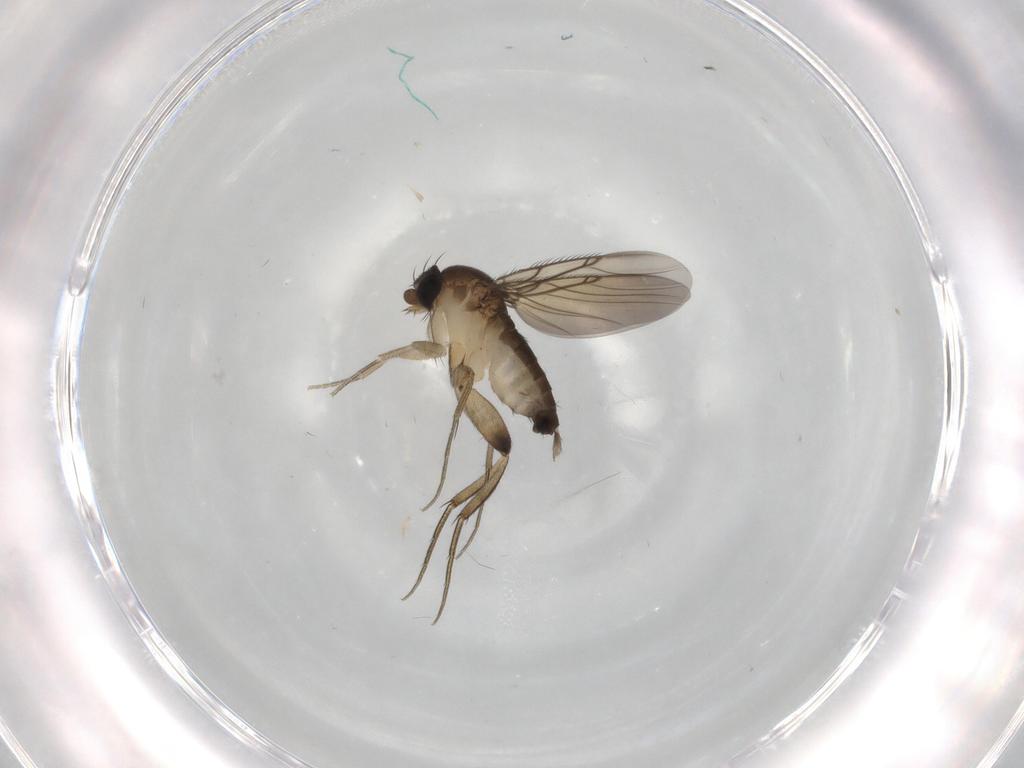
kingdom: Animalia
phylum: Arthropoda
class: Insecta
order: Diptera
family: Phoridae
